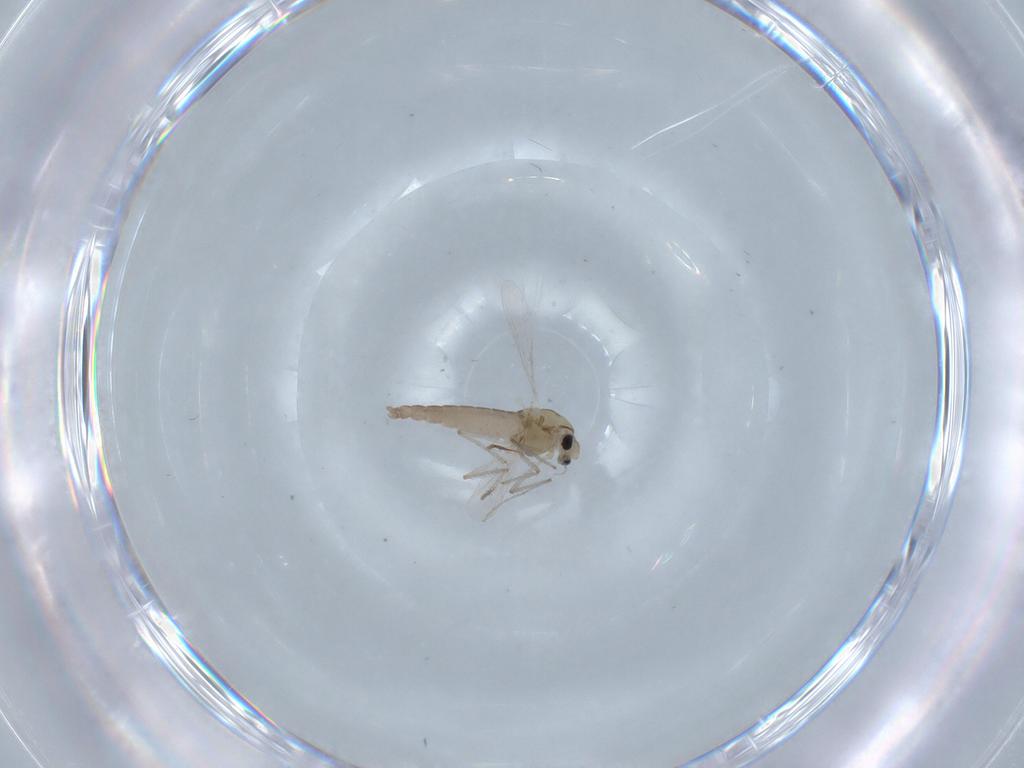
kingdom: Animalia
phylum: Arthropoda
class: Insecta
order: Diptera
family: Chironomidae
